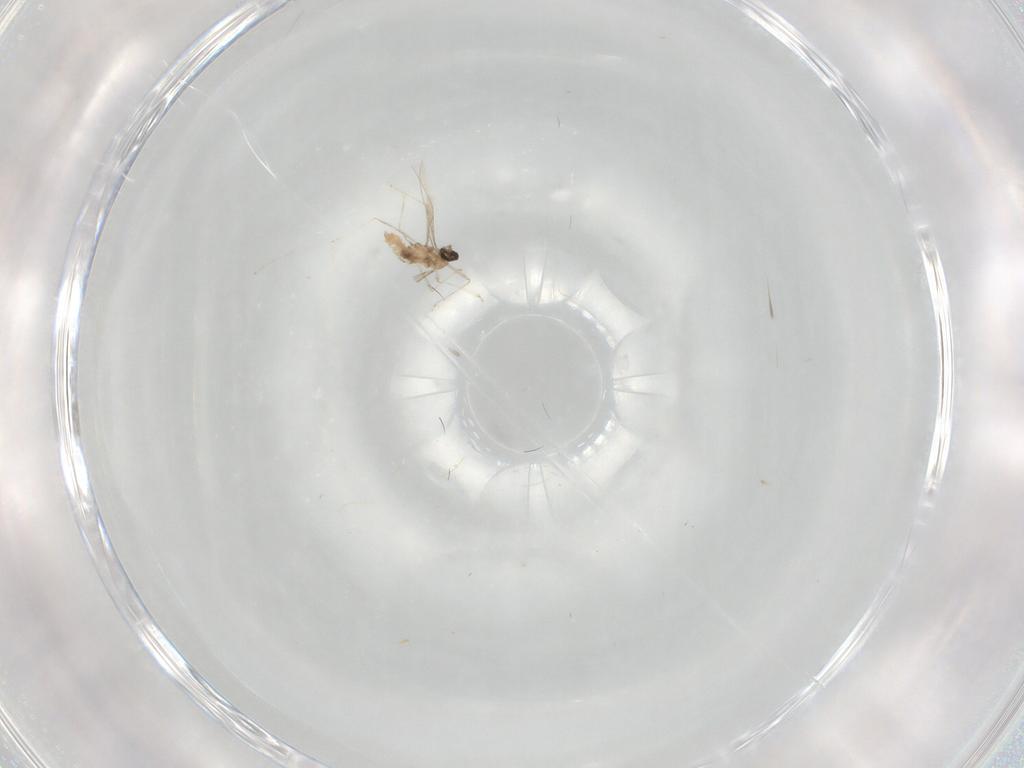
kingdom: Animalia
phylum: Arthropoda
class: Insecta
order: Diptera
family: Cecidomyiidae
